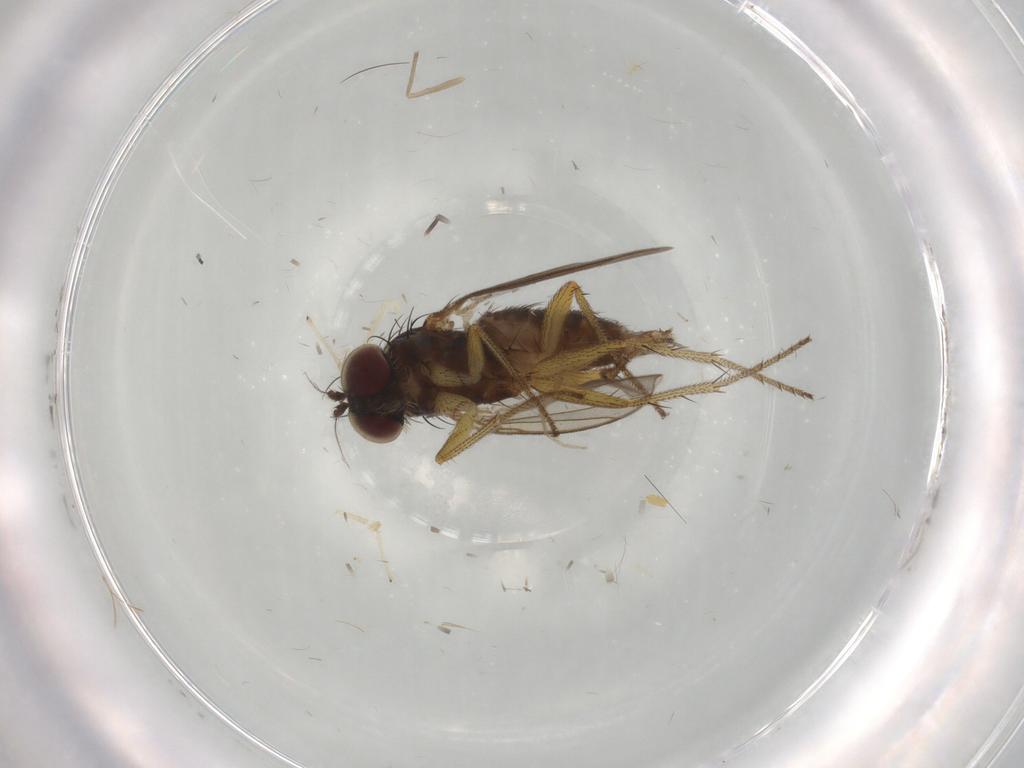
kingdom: Animalia
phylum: Arthropoda
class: Insecta
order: Diptera
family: Dolichopodidae
